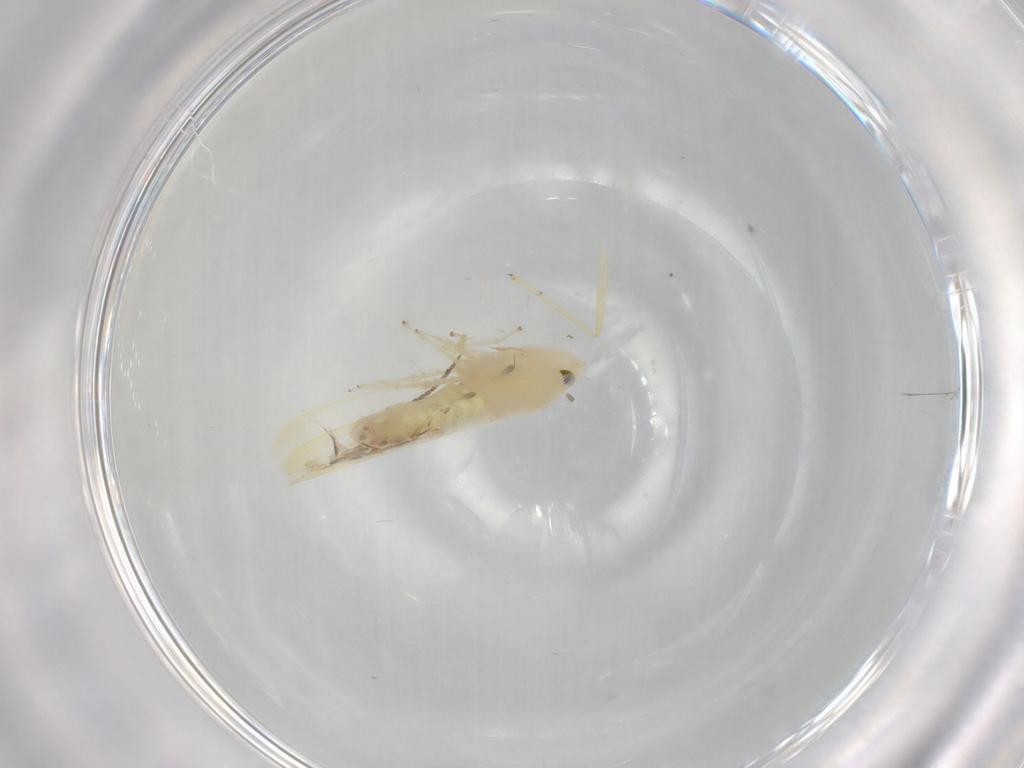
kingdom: Animalia
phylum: Arthropoda
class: Insecta
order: Hemiptera
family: Cicadellidae
